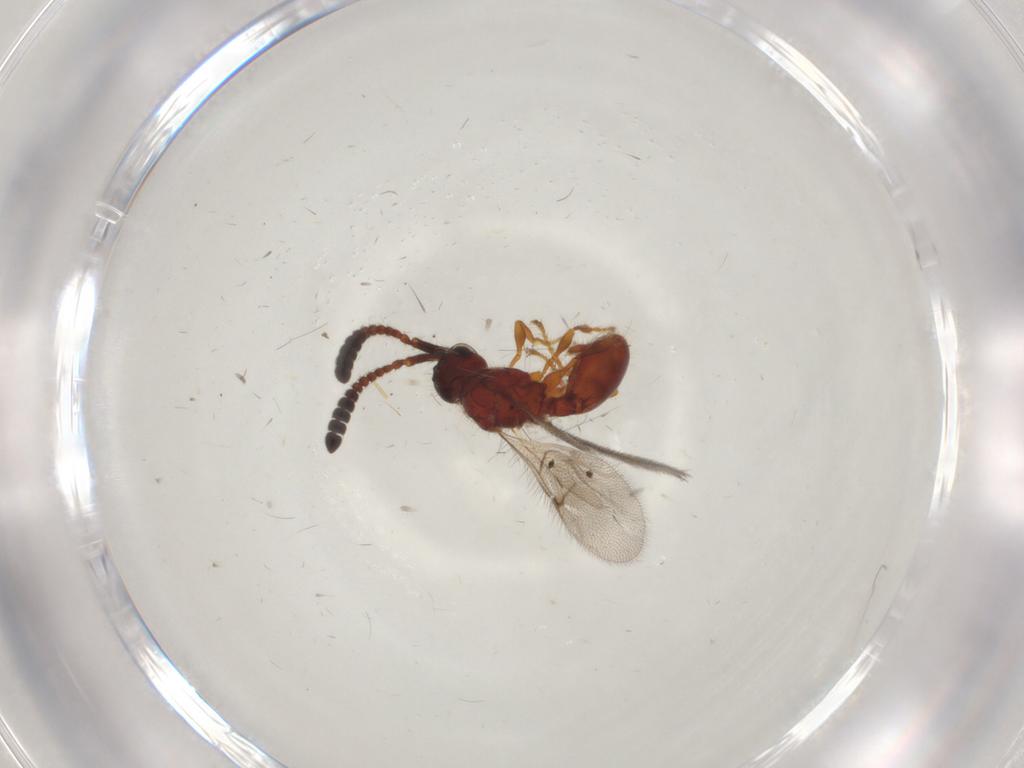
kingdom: Animalia
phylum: Arthropoda
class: Insecta
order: Hymenoptera
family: Diapriidae
